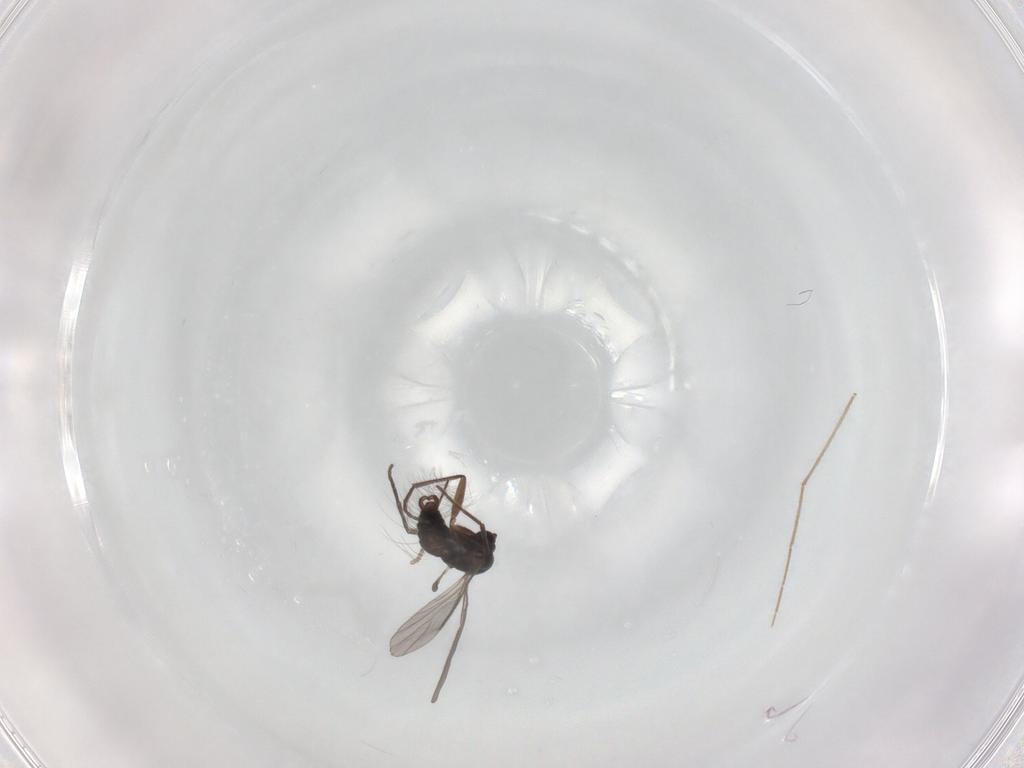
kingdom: Animalia
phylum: Arthropoda
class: Insecta
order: Diptera
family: Sciaridae
